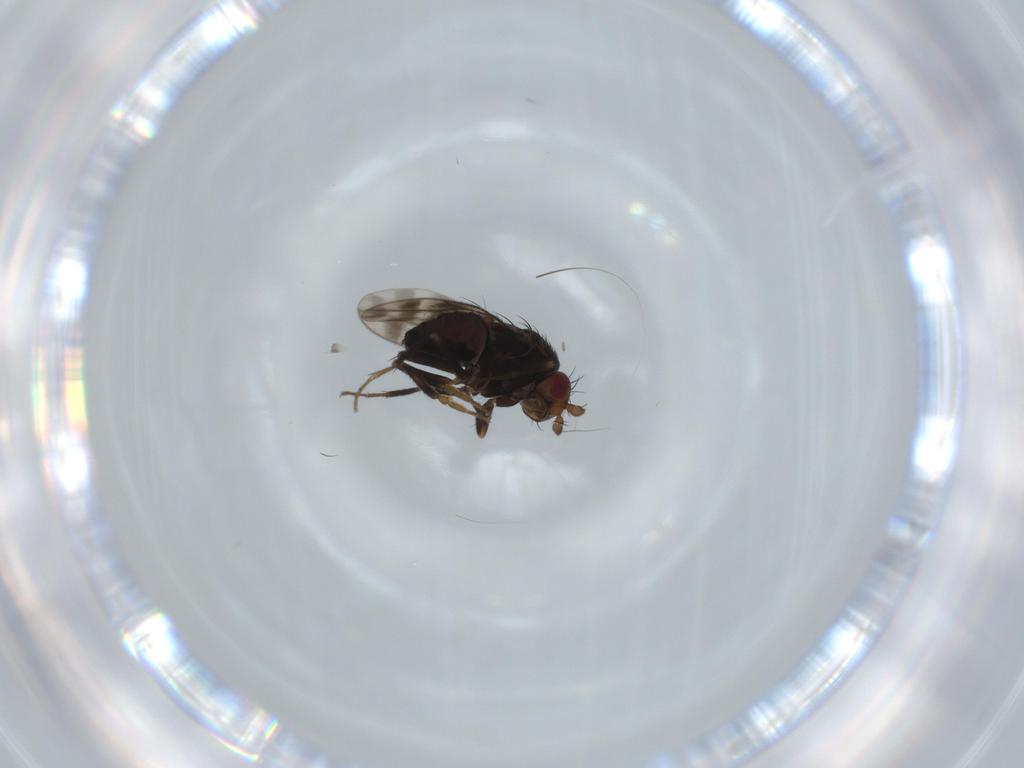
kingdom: Animalia
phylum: Arthropoda
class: Insecta
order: Diptera
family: Sphaeroceridae
